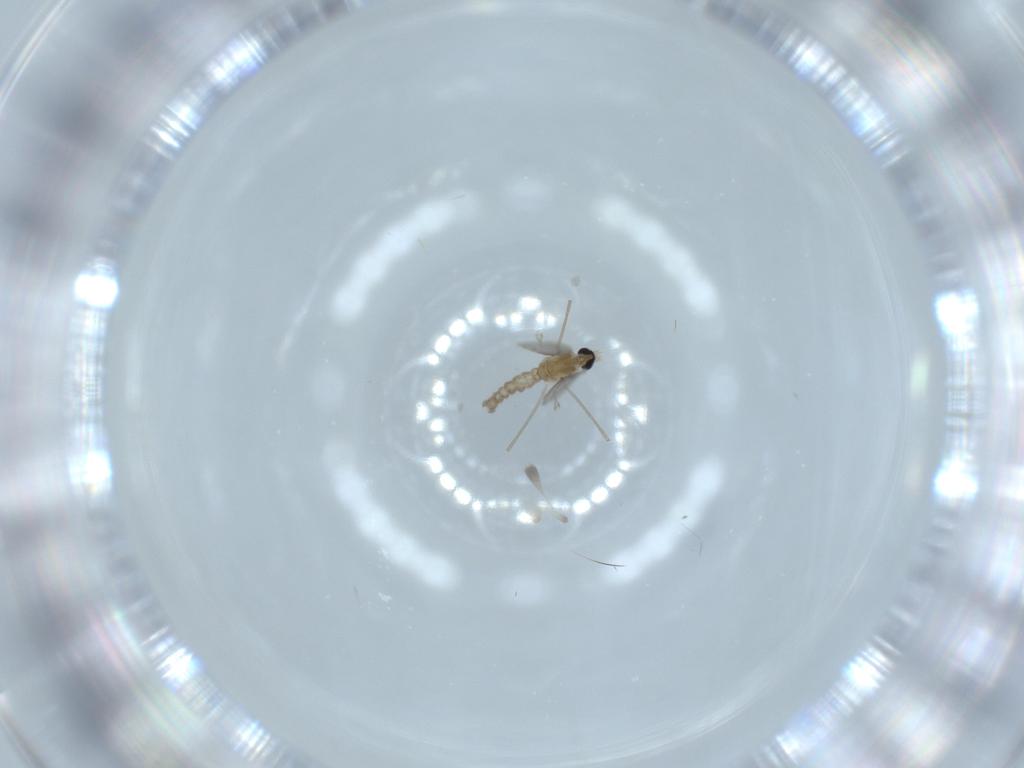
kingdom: Animalia
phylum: Arthropoda
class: Insecta
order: Diptera
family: Cecidomyiidae
